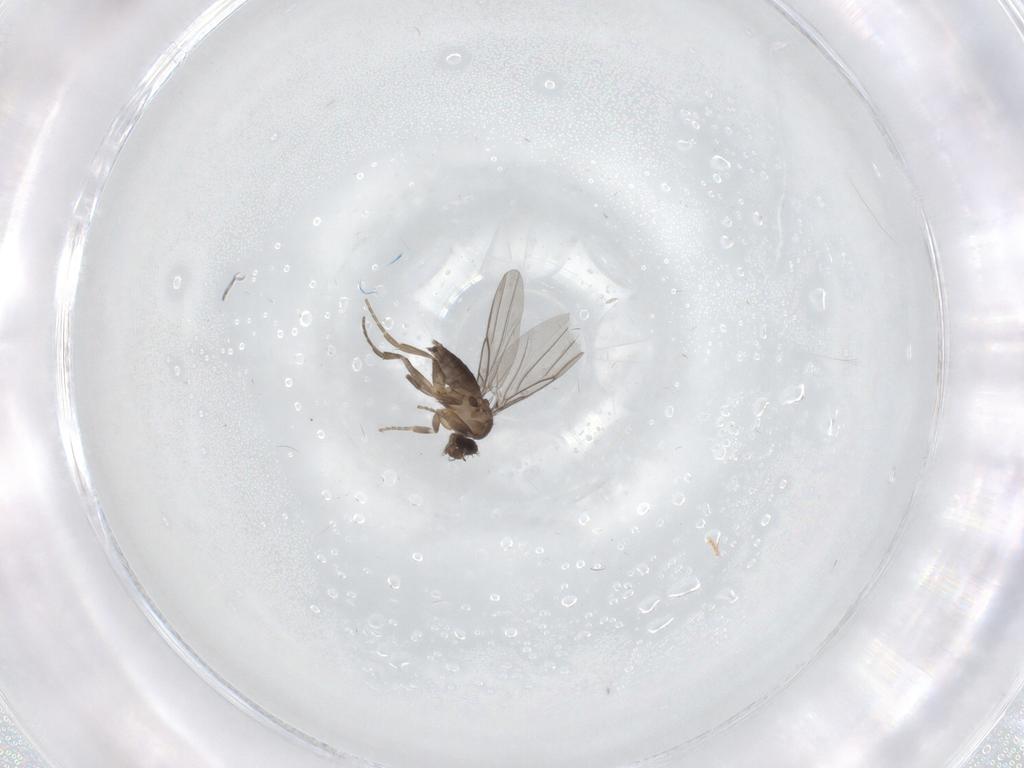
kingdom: Animalia
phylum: Arthropoda
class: Insecta
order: Diptera
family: Phoridae
